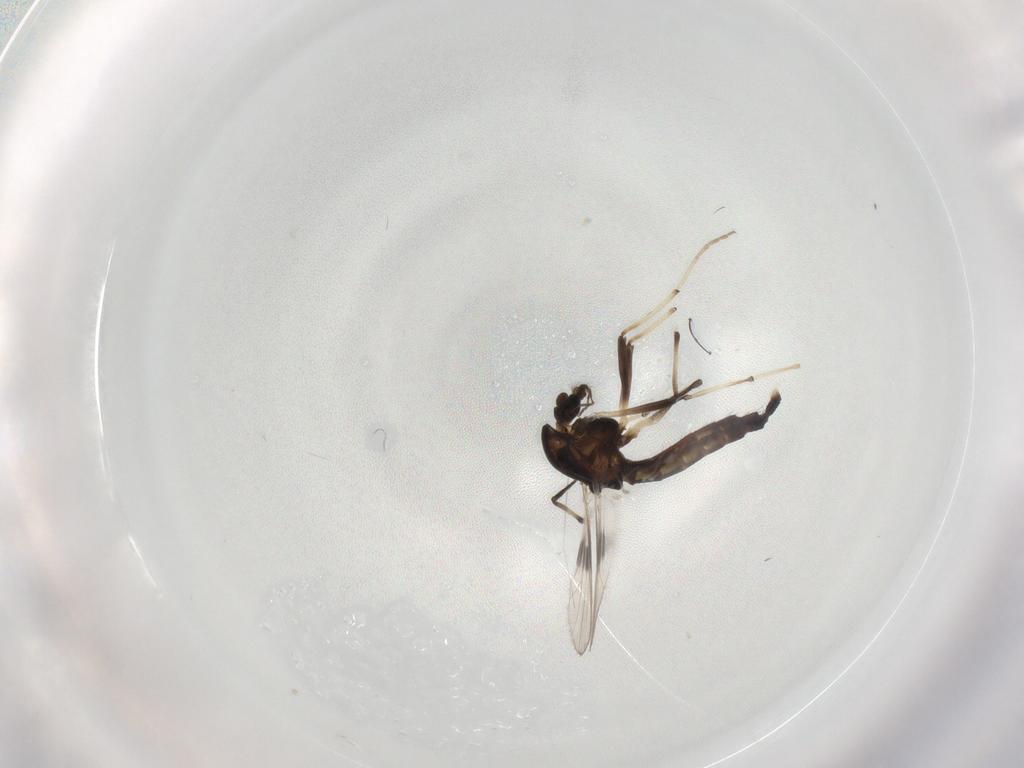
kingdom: Animalia
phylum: Arthropoda
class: Insecta
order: Diptera
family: Chironomidae
